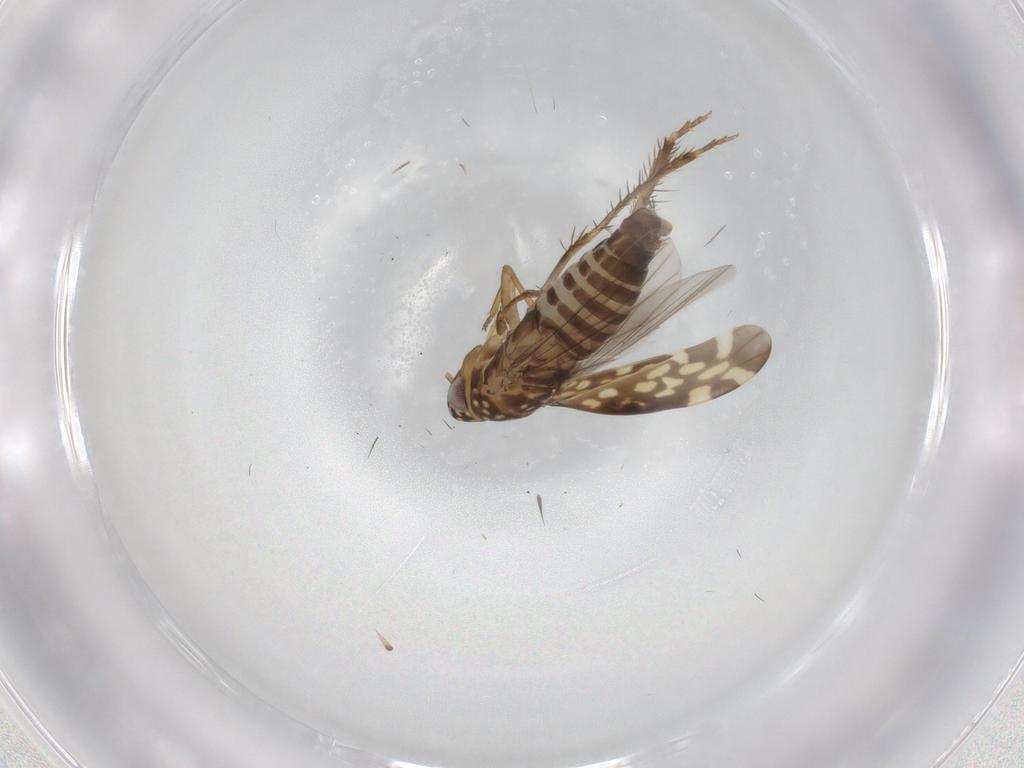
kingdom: Animalia
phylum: Arthropoda
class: Insecta
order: Hemiptera
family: Cicadellidae
